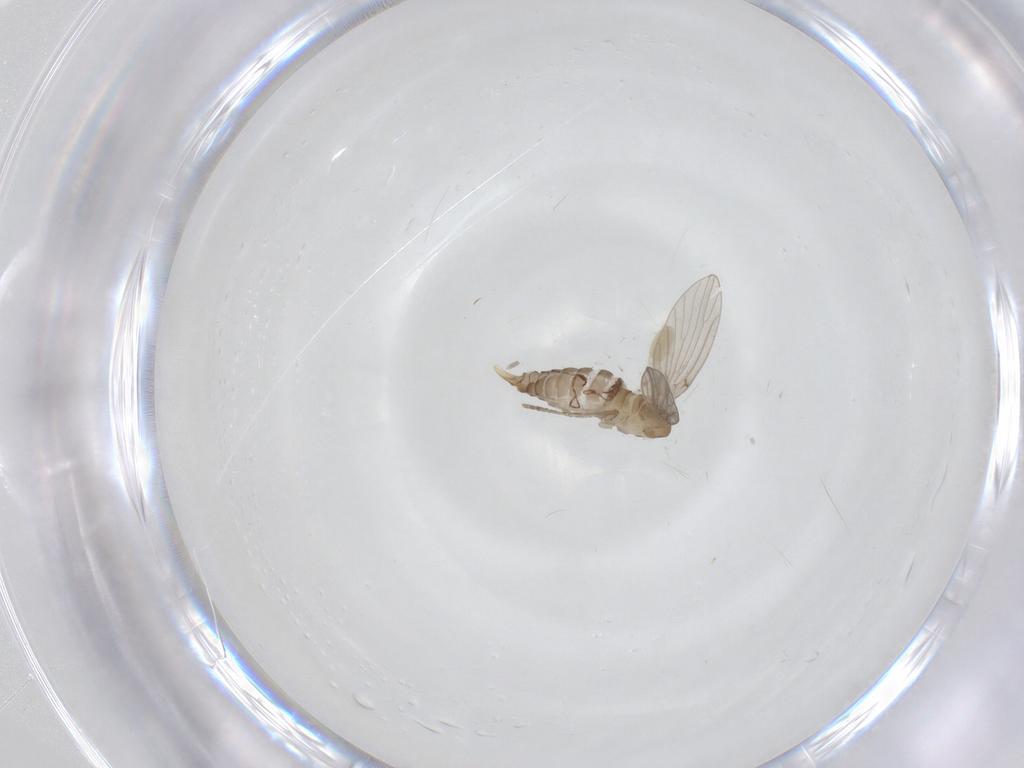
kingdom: Animalia
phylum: Arthropoda
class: Insecta
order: Diptera
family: Cecidomyiidae
